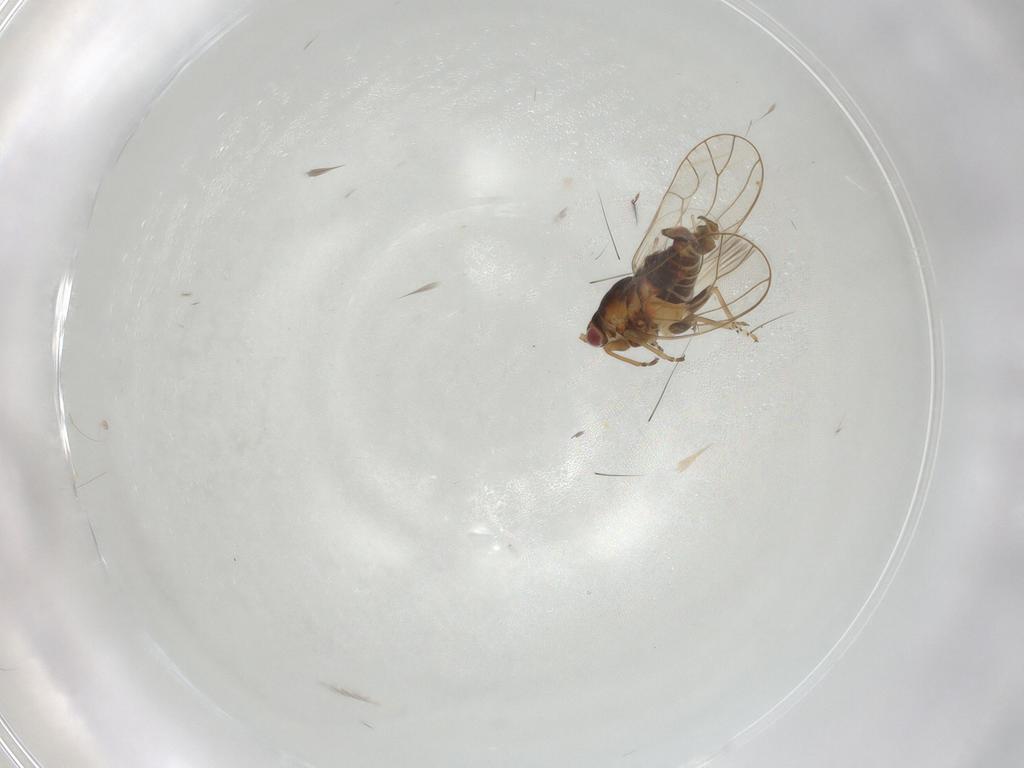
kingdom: Animalia
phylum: Arthropoda
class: Insecta
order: Hemiptera
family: Psyllidae
